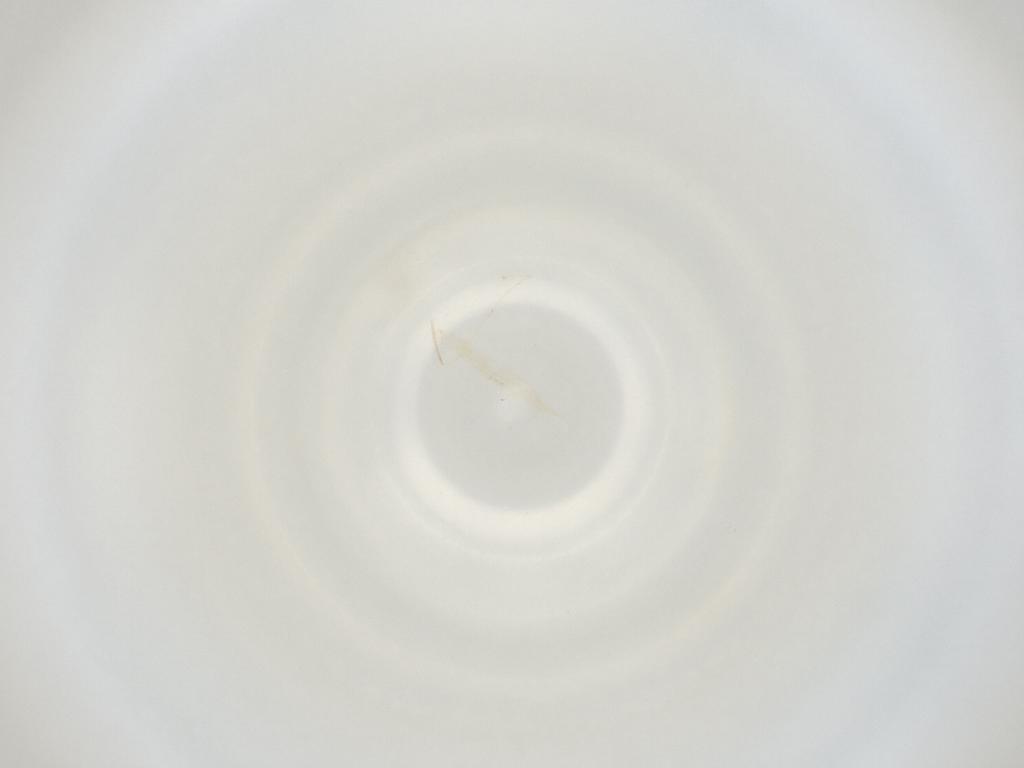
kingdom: Animalia
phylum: Arthropoda
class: Insecta
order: Diptera
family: Cecidomyiidae
